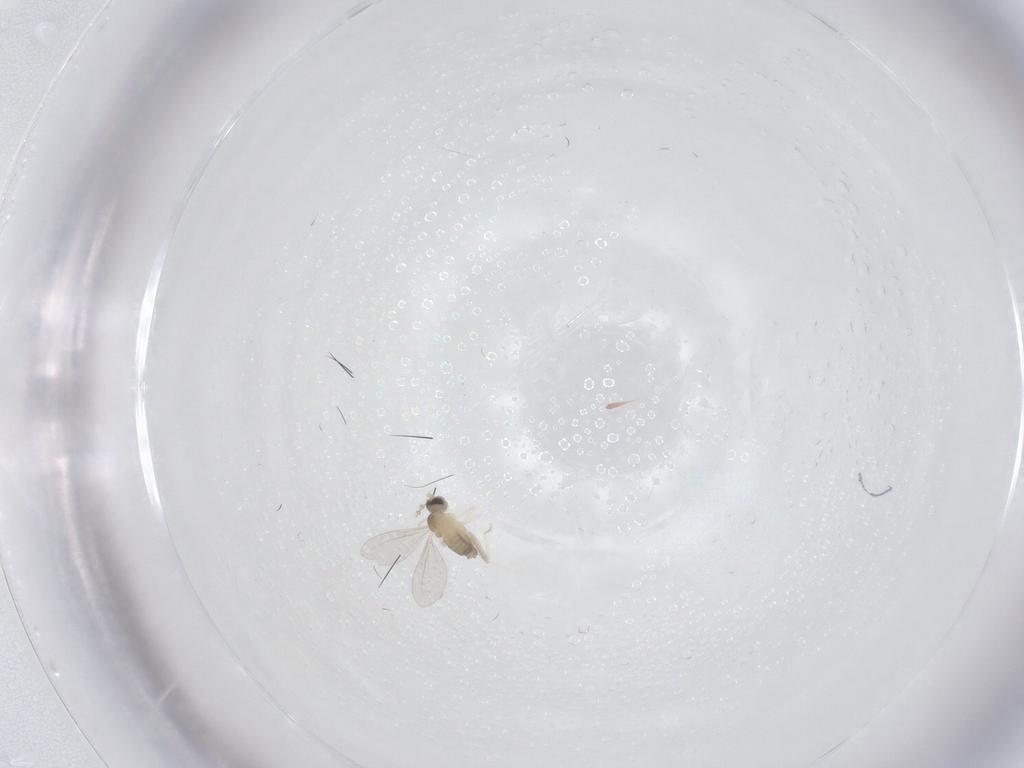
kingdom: Animalia
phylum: Arthropoda
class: Insecta
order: Diptera
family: Cecidomyiidae
